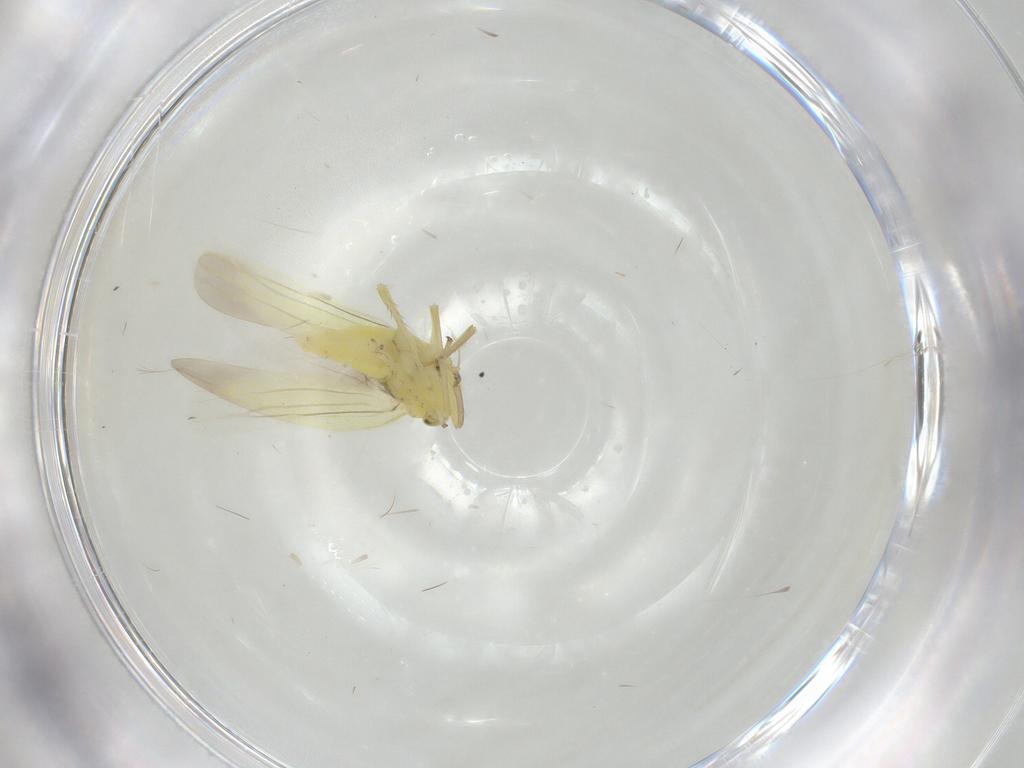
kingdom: Animalia
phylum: Arthropoda
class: Insecta
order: Hemiptera
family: Cicadellidae
